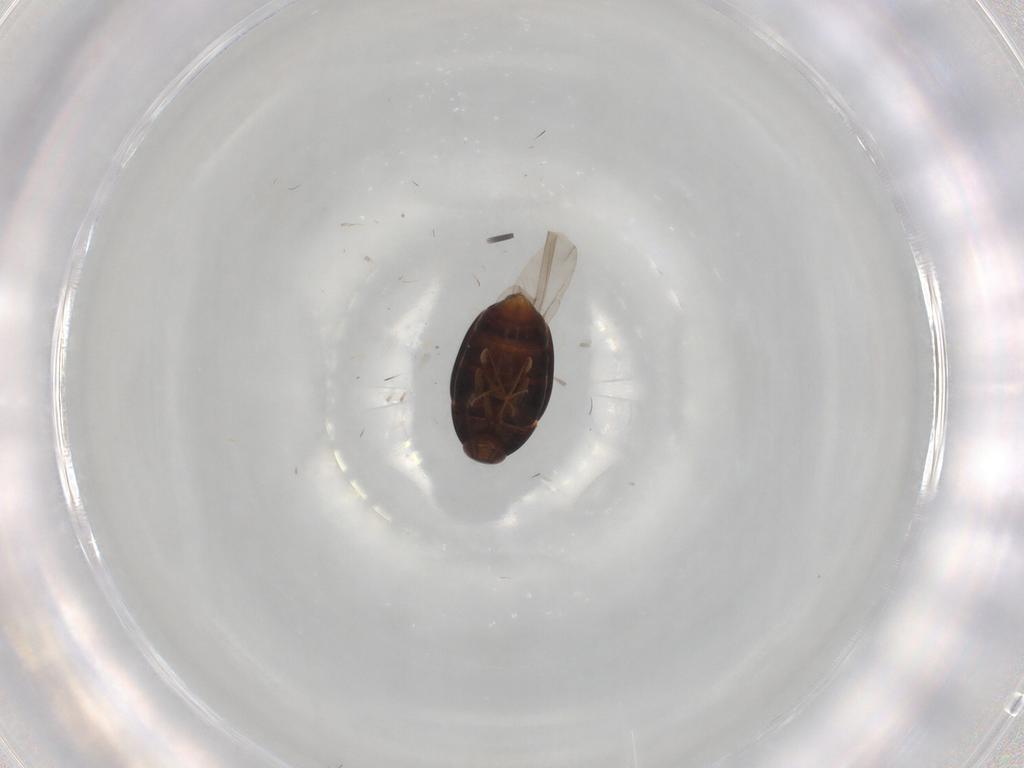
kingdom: Animalia
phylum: Arthropoda
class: Insecta
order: Coleoptera
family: Staphylinidae
